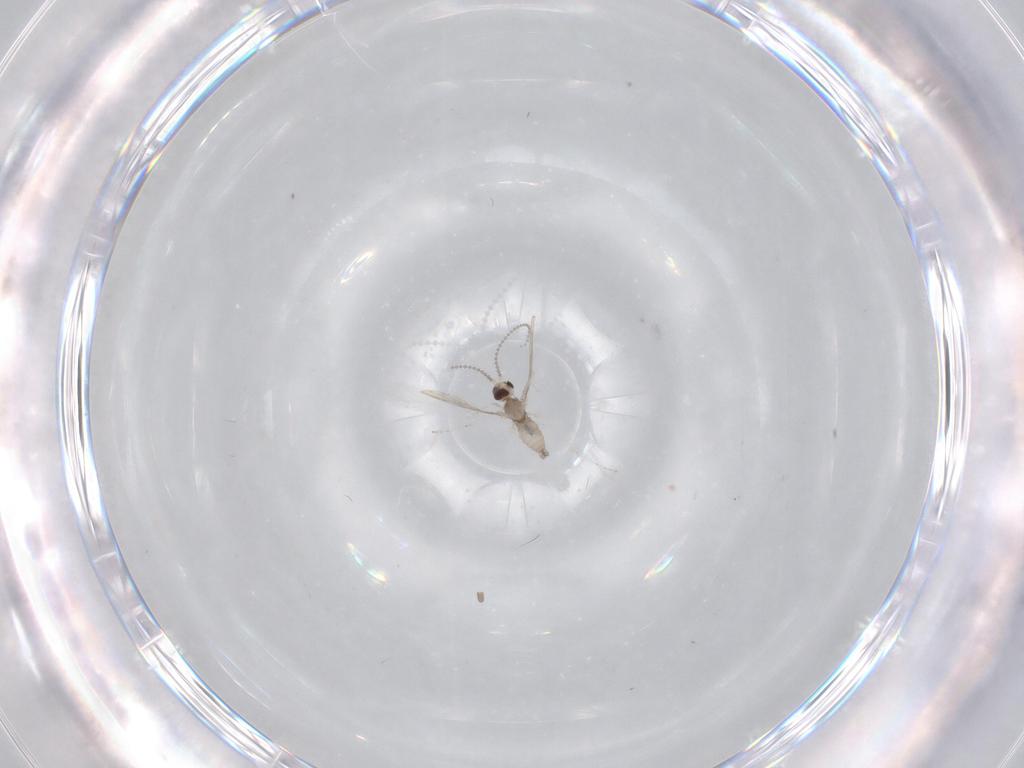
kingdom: Animalia
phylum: Arthropoda
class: Insecta
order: Diptera
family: Cecidomyiidae
